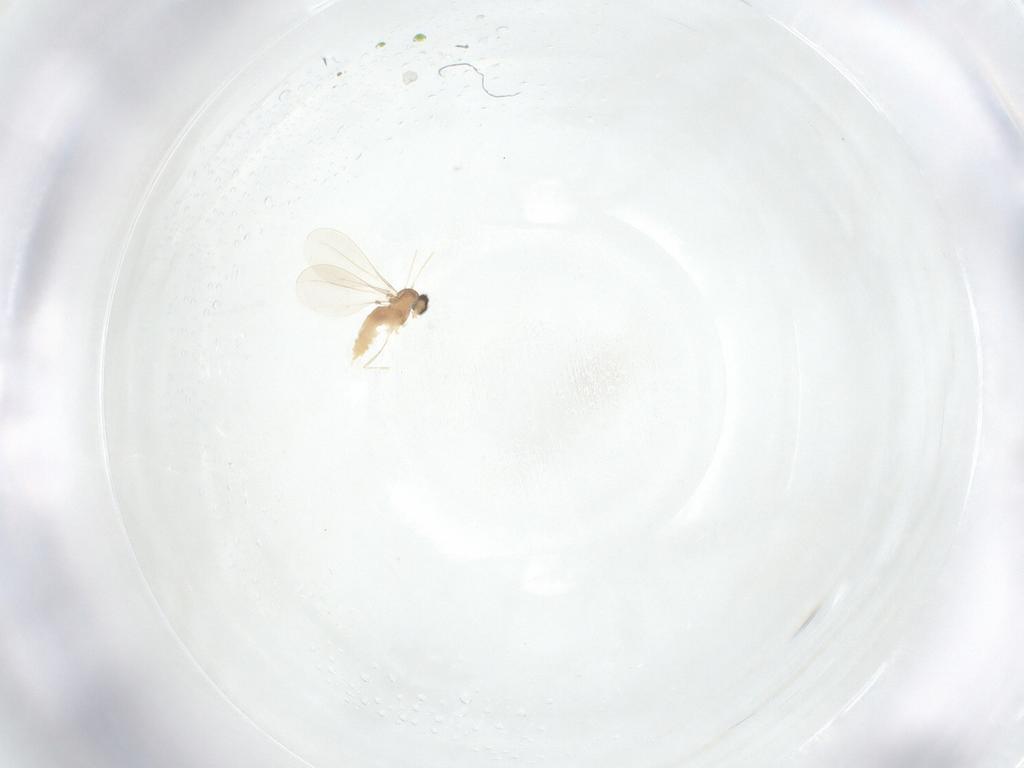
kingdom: Animalia
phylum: Arthropoda
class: Insecta
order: Diptera
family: Cecidomyiidae
